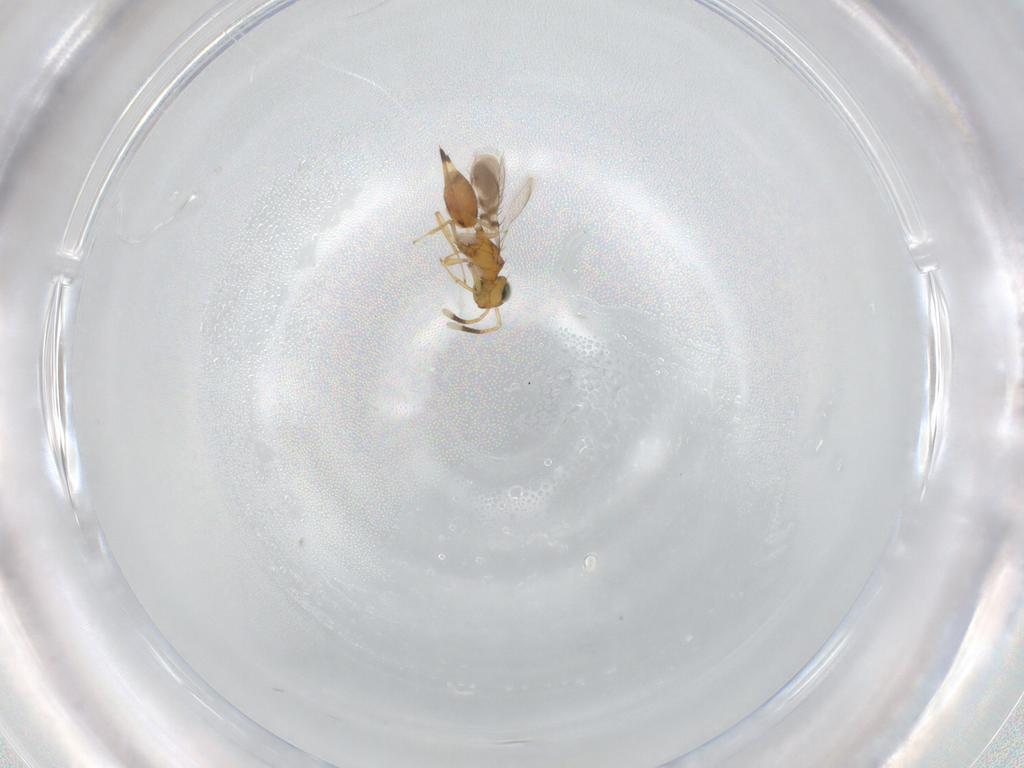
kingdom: Animalia
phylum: Arthropoda
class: Insecta
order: Hymenoptera
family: Diparidae
